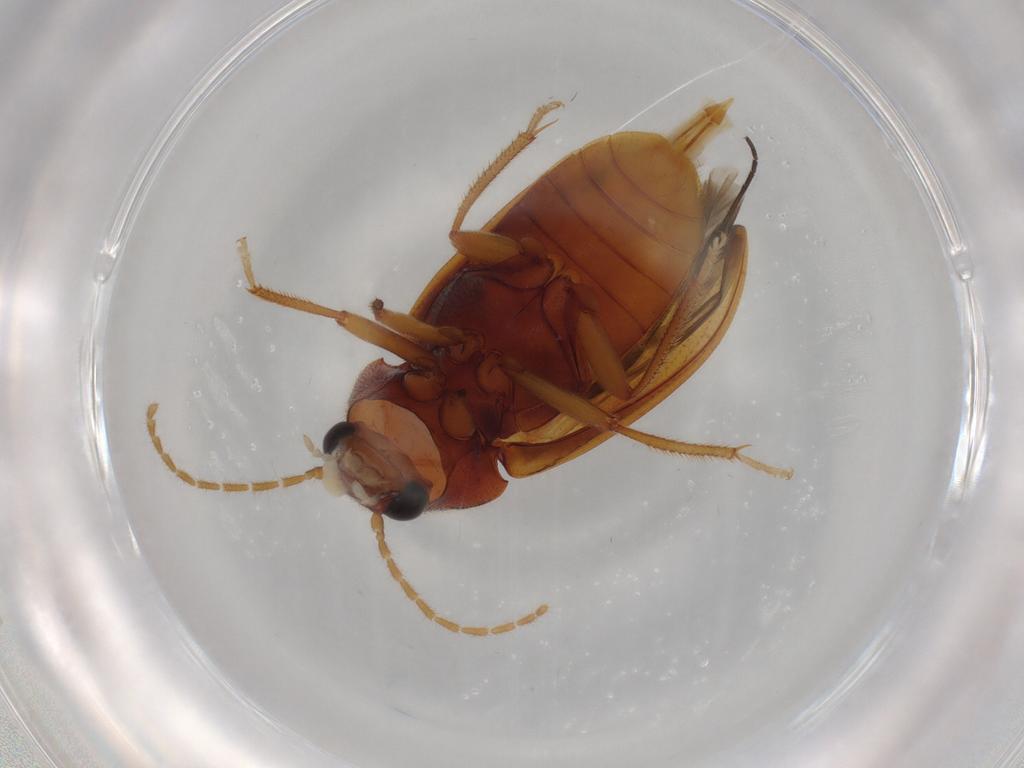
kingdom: Animalia
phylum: Arthropoda
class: Insecta
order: Coleoptera
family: Ptilodactylidae
